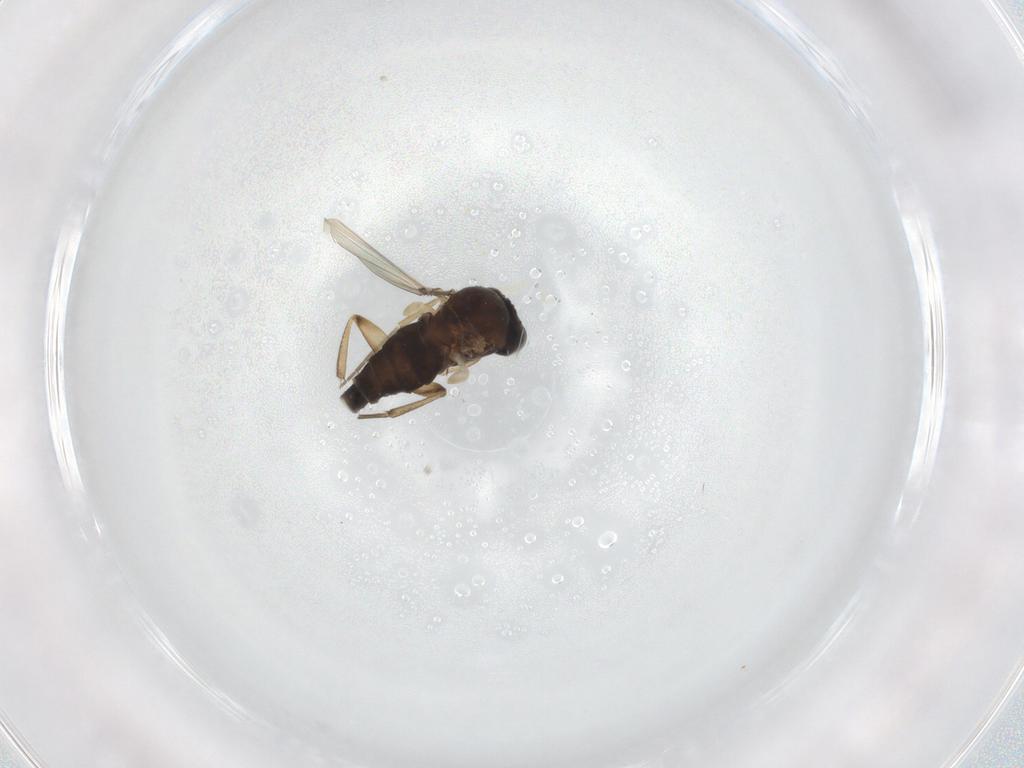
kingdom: Animalia
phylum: Arthropoda
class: Insecta
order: Diptera
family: Phoridae
